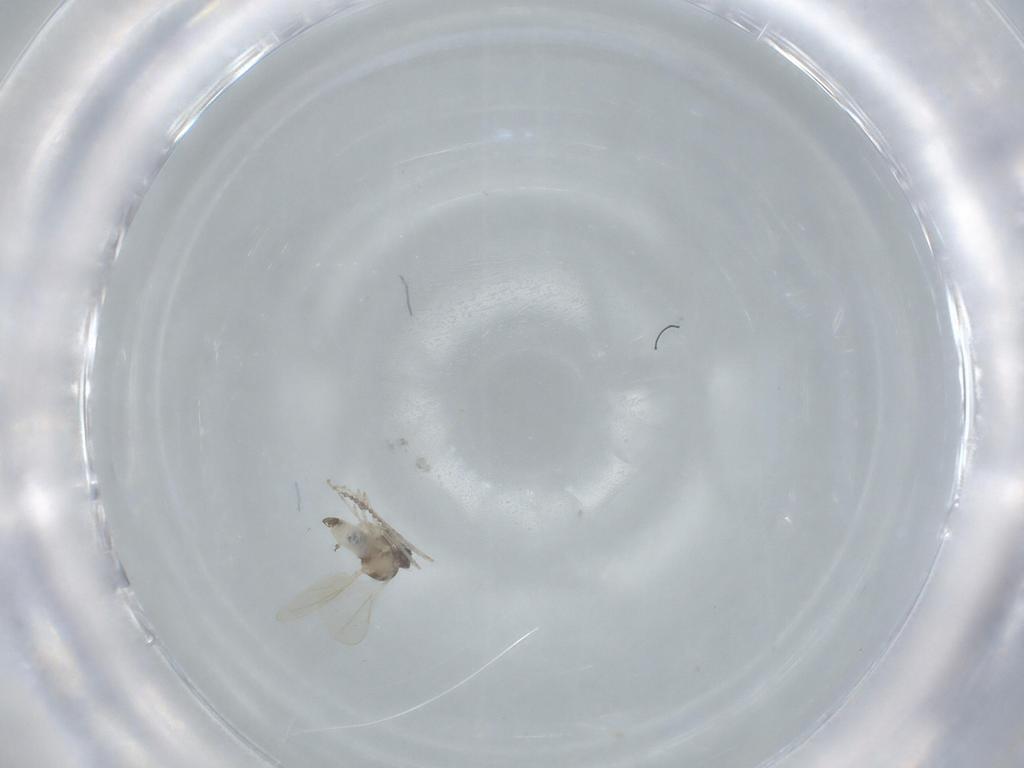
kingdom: Animalia
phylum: Arthropoda
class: Insecta
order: Diptera
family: Cecidomyiidae
